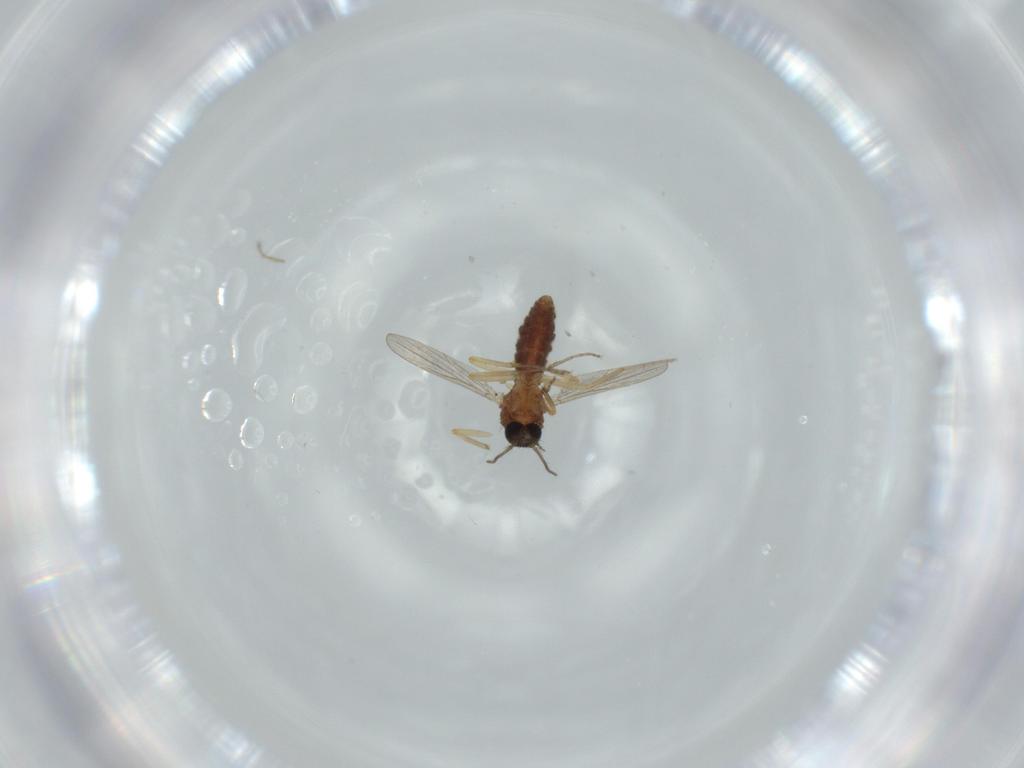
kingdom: Animalia
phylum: Arthropoda
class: Insecta
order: Diptera
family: Ceratopogonidae
